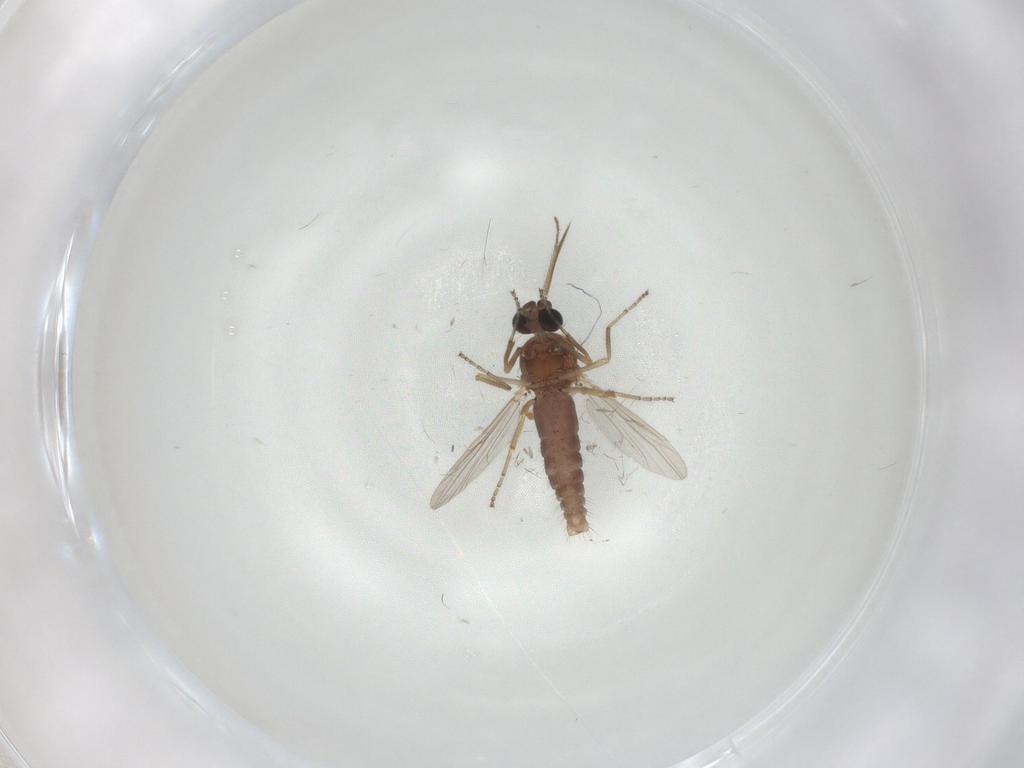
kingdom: Animalia
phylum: Arthropoda
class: Insecta
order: Diptera
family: Ceratopogonidae
